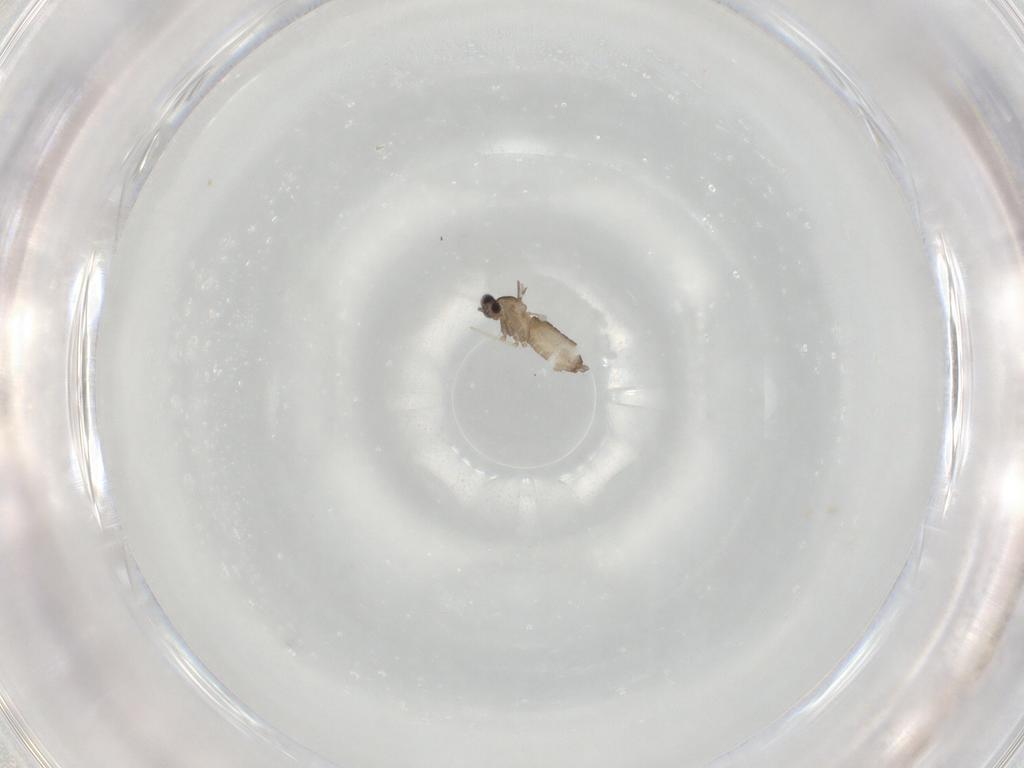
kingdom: Animalia
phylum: Arthropoda
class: Insecta
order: Diptera
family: Cecidomyiidae
